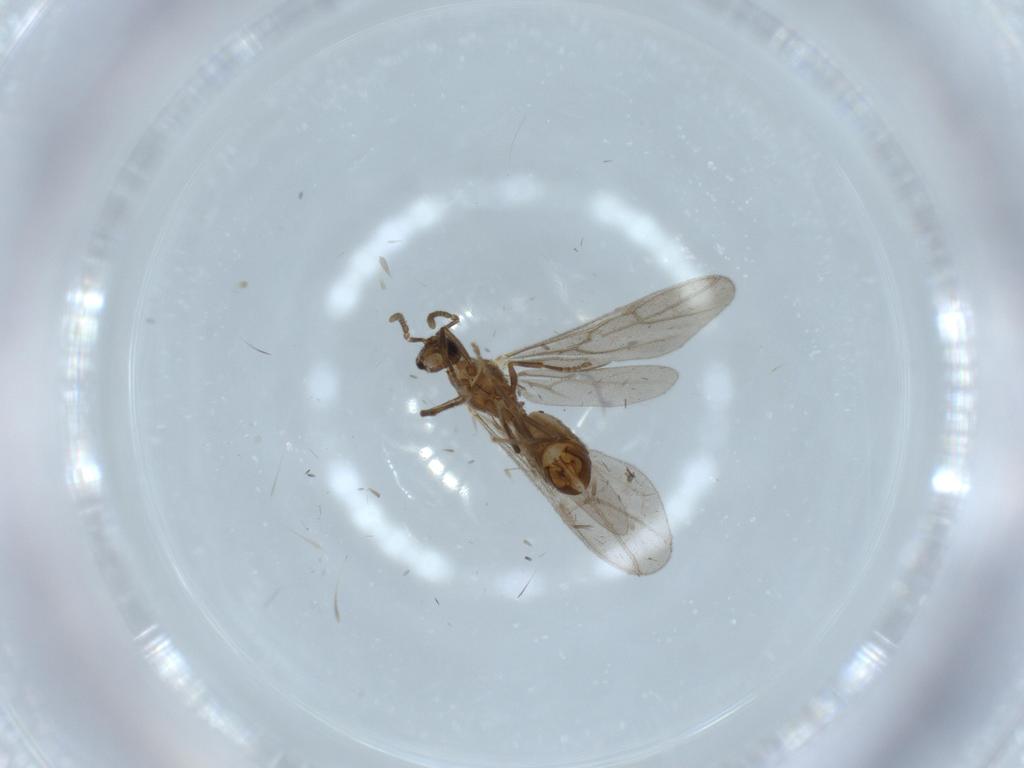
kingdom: Animalia
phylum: Arthropoda
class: Insecta
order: Hymenoptera
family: Formicidae
